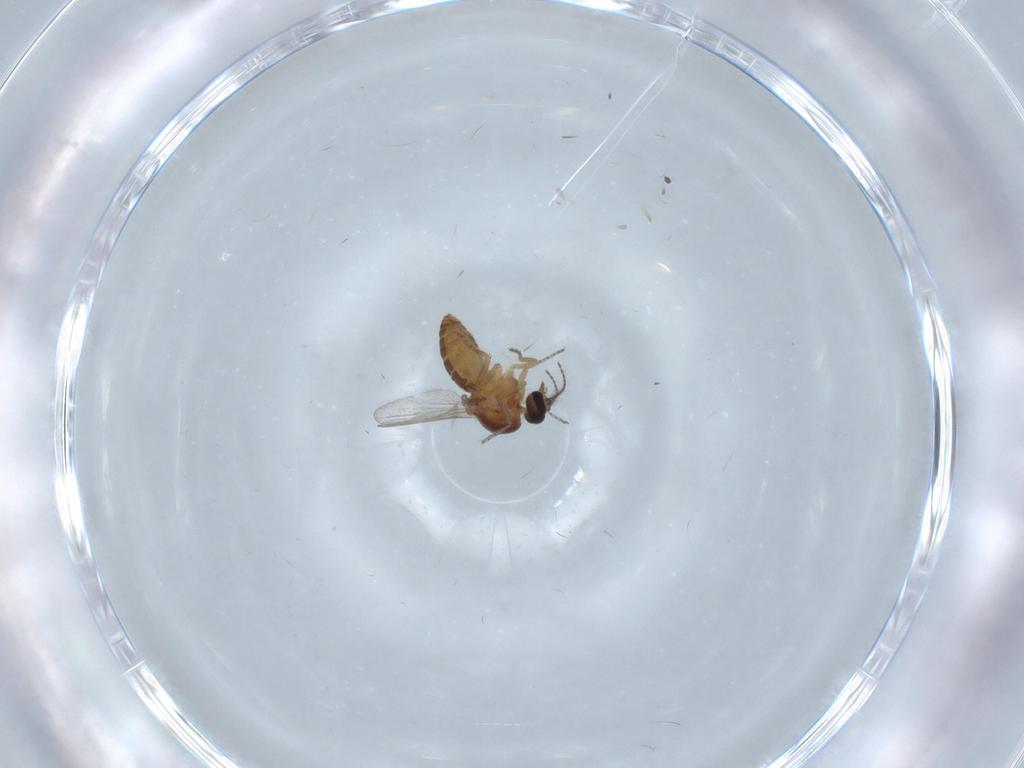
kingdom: Animalia
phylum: Arthropoda
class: Insecta
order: Diptera
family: Ceratopogonidae
